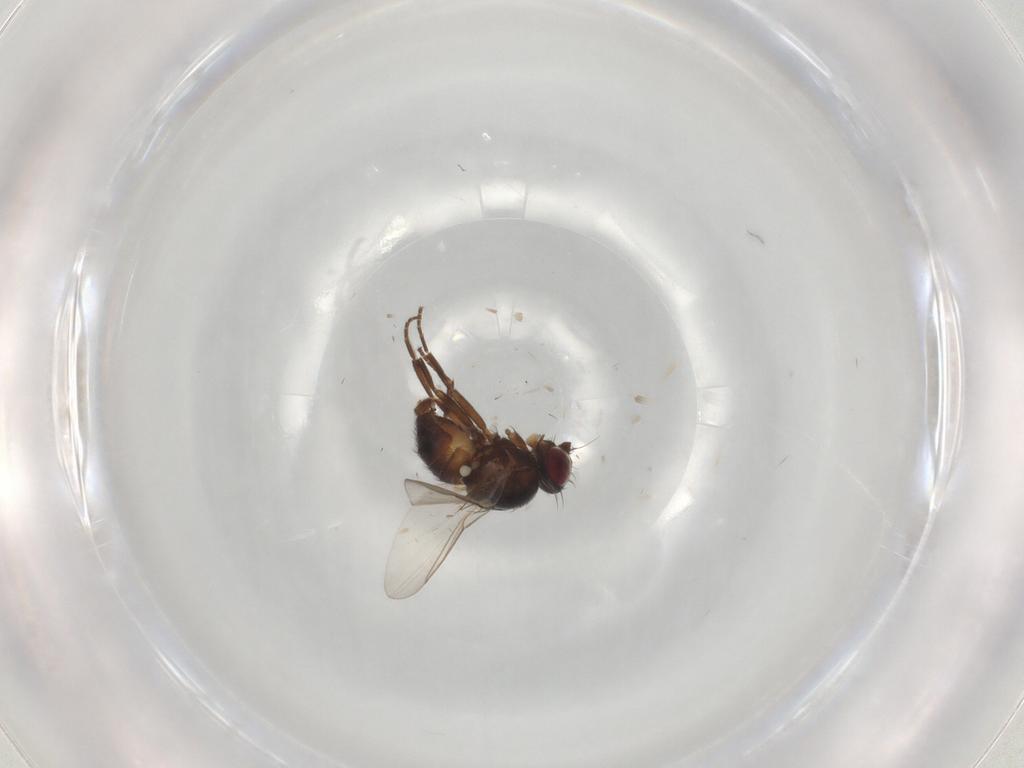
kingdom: Animalia
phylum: Arthropoda
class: Insecta
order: Diptera
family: Agromyzidae
